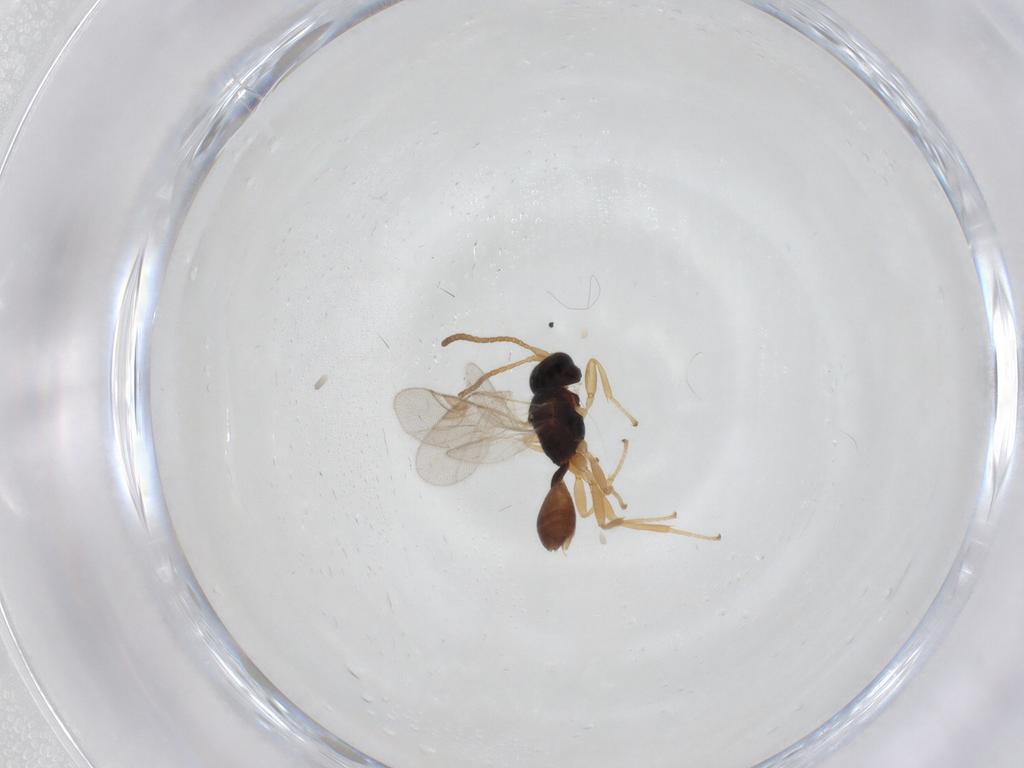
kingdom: Animalia
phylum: Arthropoda
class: Insecta
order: Hymenoptera
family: Braconidae
